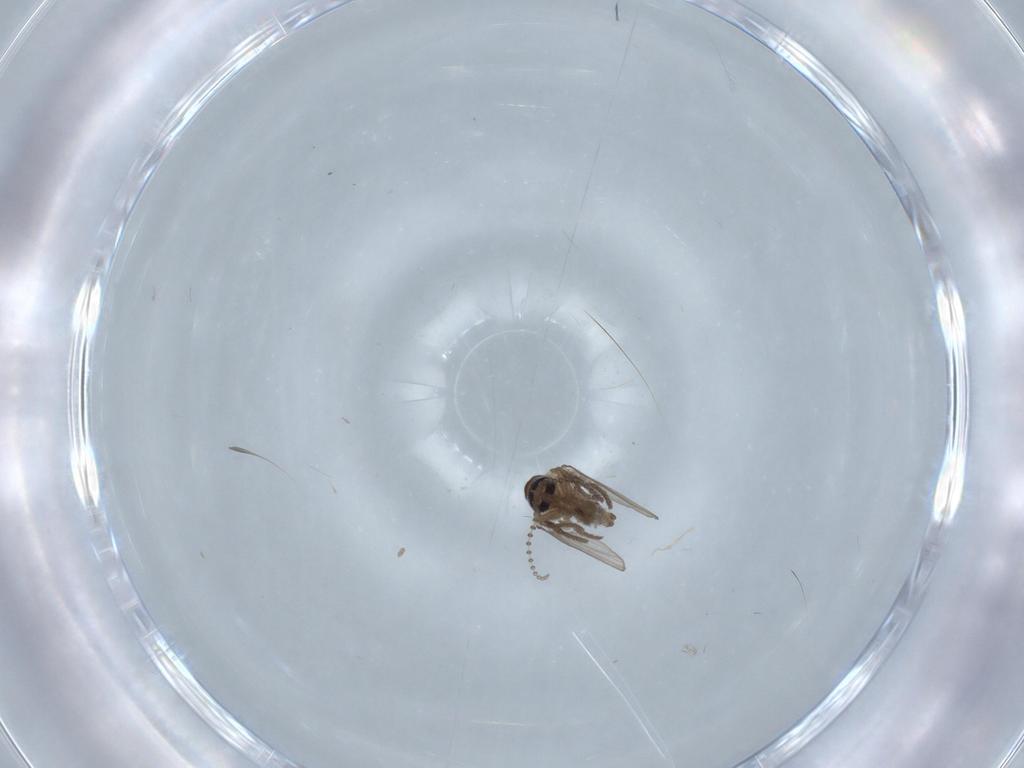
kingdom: Animalia
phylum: Arthropoda
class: Insecta
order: Diptera
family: Psychodidae
